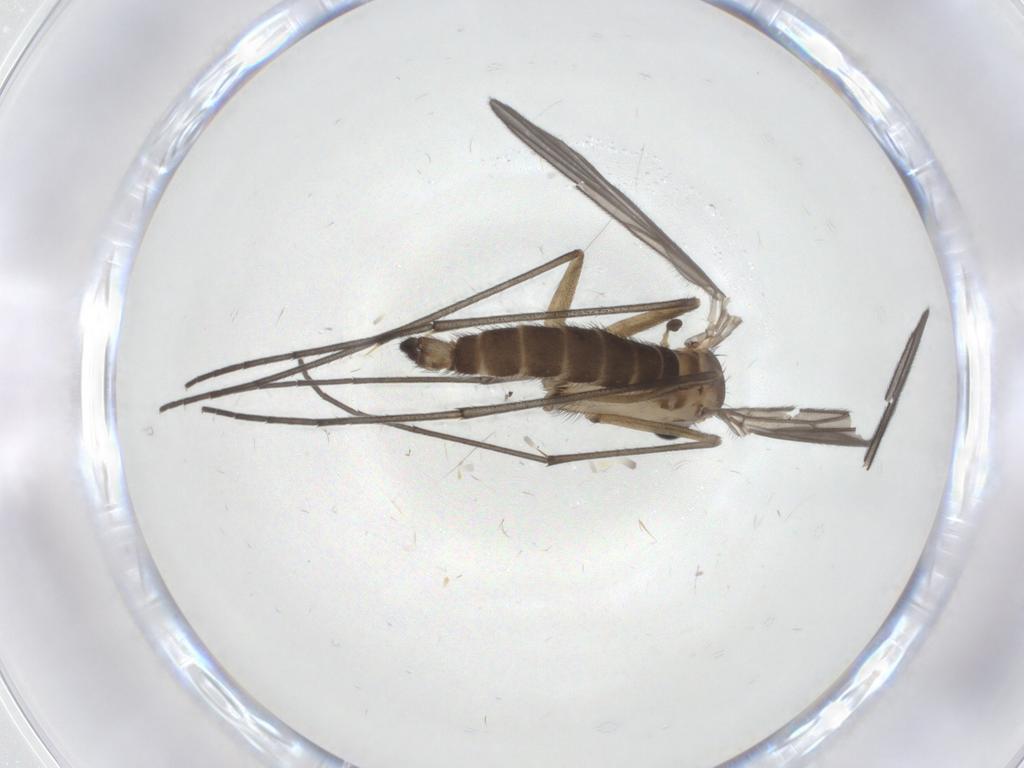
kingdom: Animalia
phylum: Arthropoda
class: Insecta
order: Diptera
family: Sciaridae
